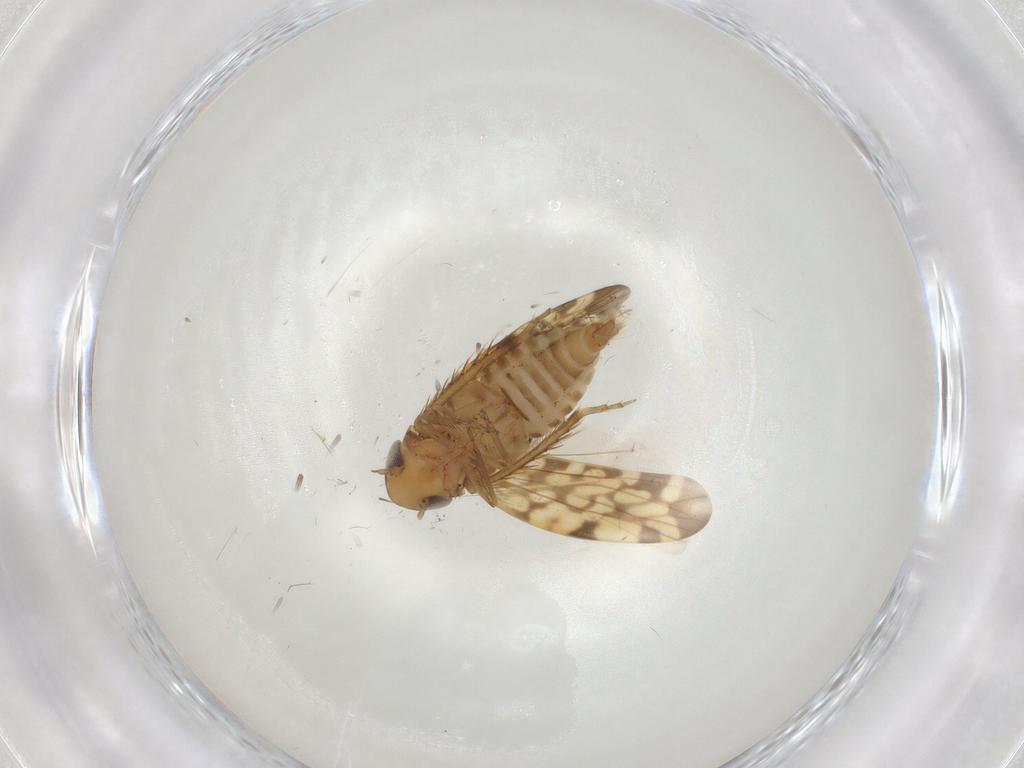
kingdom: Animalia
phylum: Arthropoda
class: Insecta
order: Hemiptera
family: Cicadellidae
